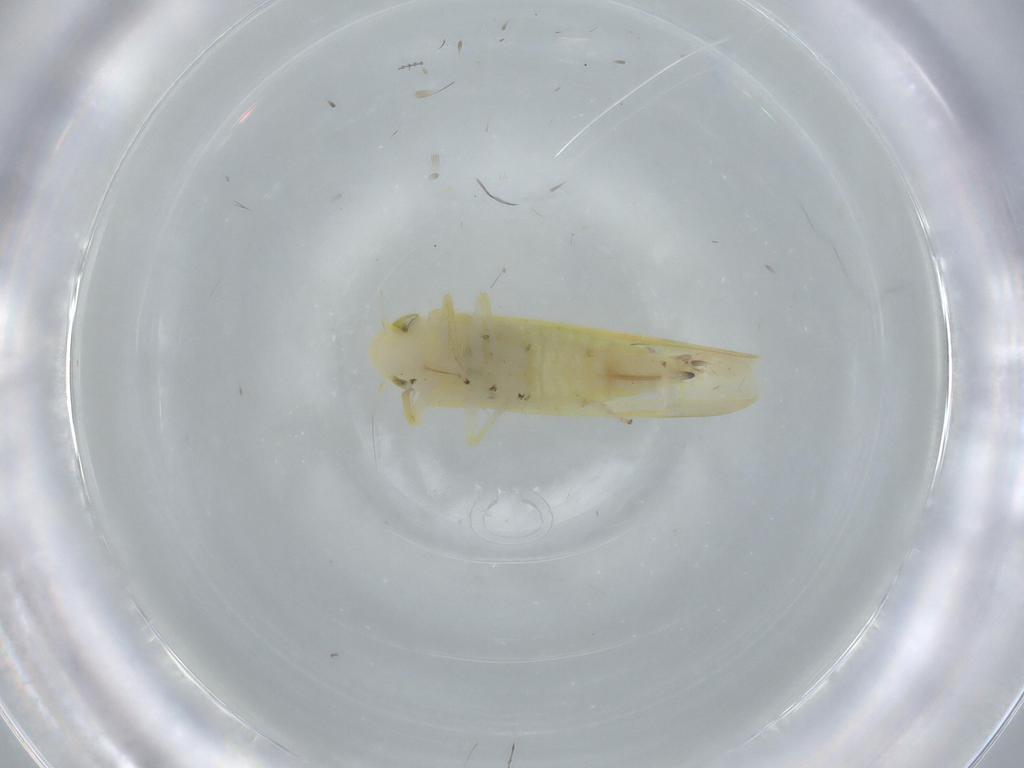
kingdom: Animalia
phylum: Arthropoda
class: Insecta
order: Hemiptera
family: Cicadellidae
